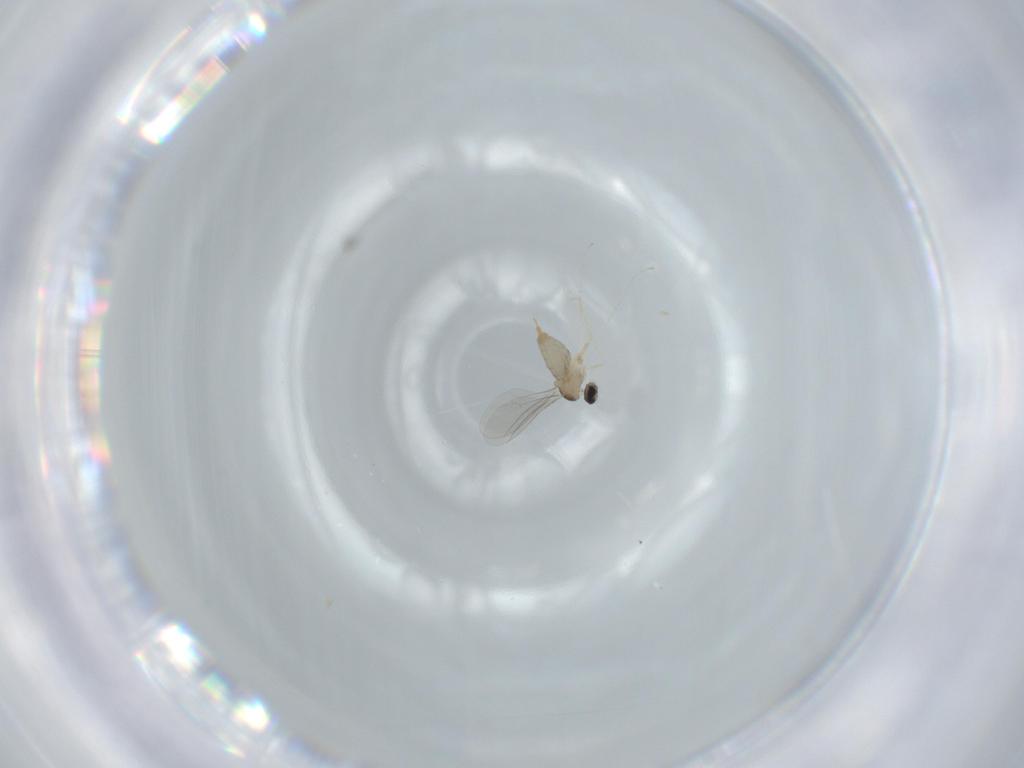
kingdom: Animalia
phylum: Arthropoda
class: Insecta
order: Diptera
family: Cecidomyiidae
